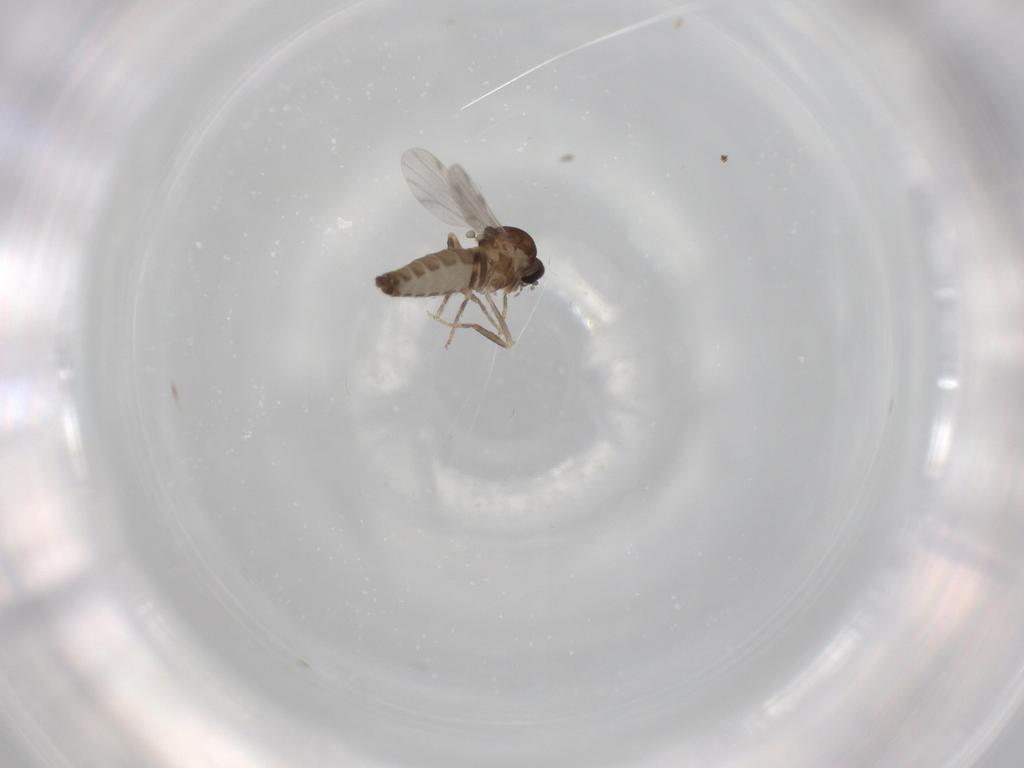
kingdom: Animalia
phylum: Arthropoda
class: Insecta
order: Diptera
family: Ceratopogonidae
